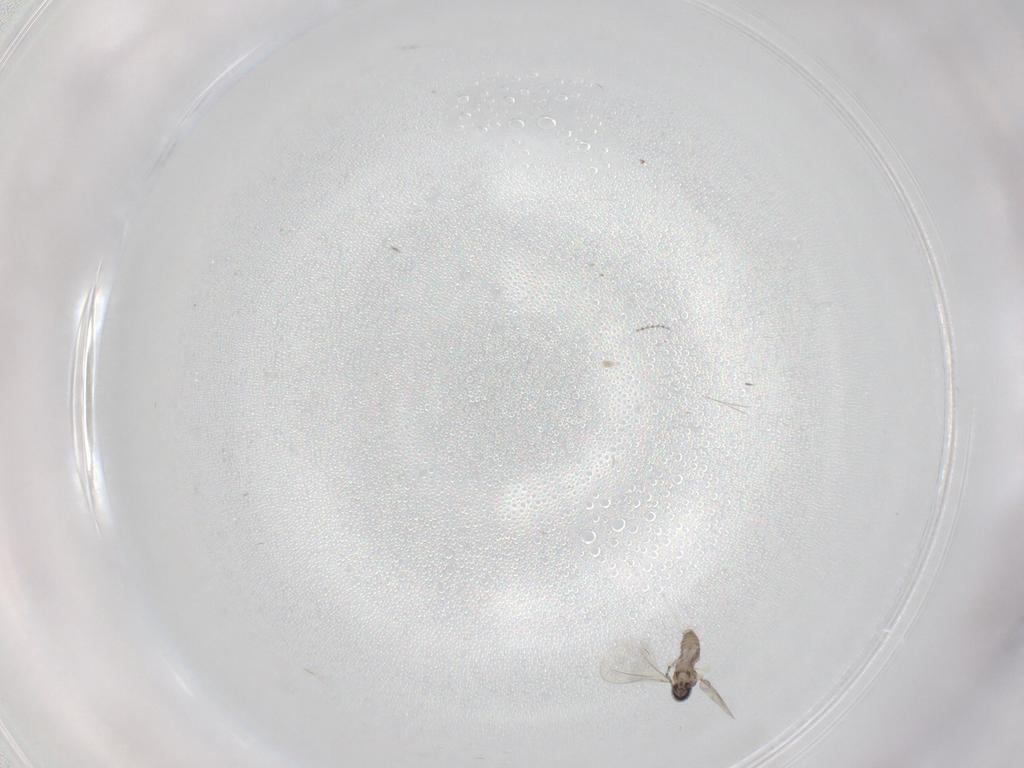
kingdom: Animalia
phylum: Arthropoda
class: Insecta
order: Diptera
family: Cecidomyiidae
